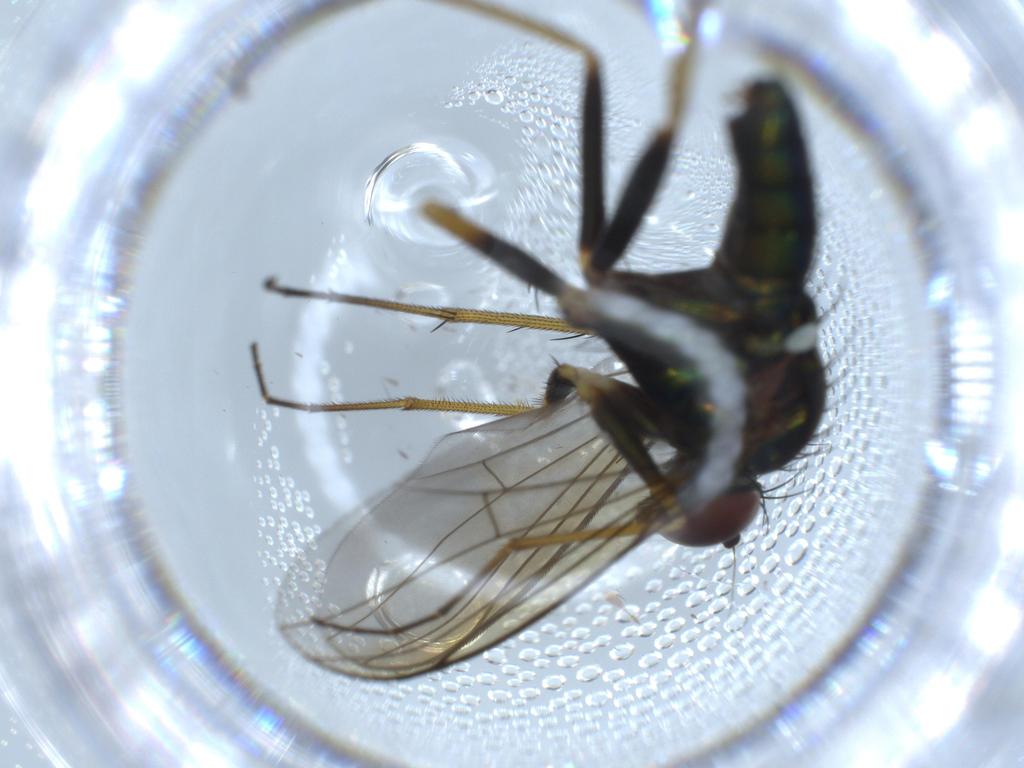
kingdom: Animalia
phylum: Arthropoda
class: Insecta
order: Diptera
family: Dolichopodidae
